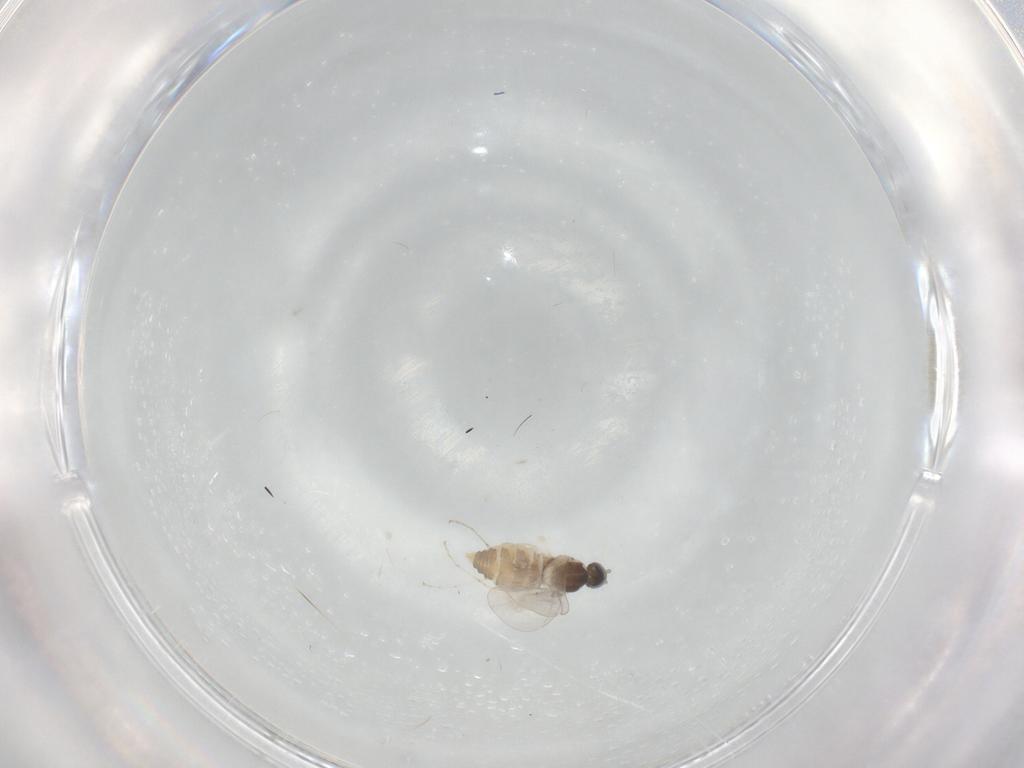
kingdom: Animalia
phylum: Arthropoda
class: Insecta
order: Diptera
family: Cecidomyiidae
